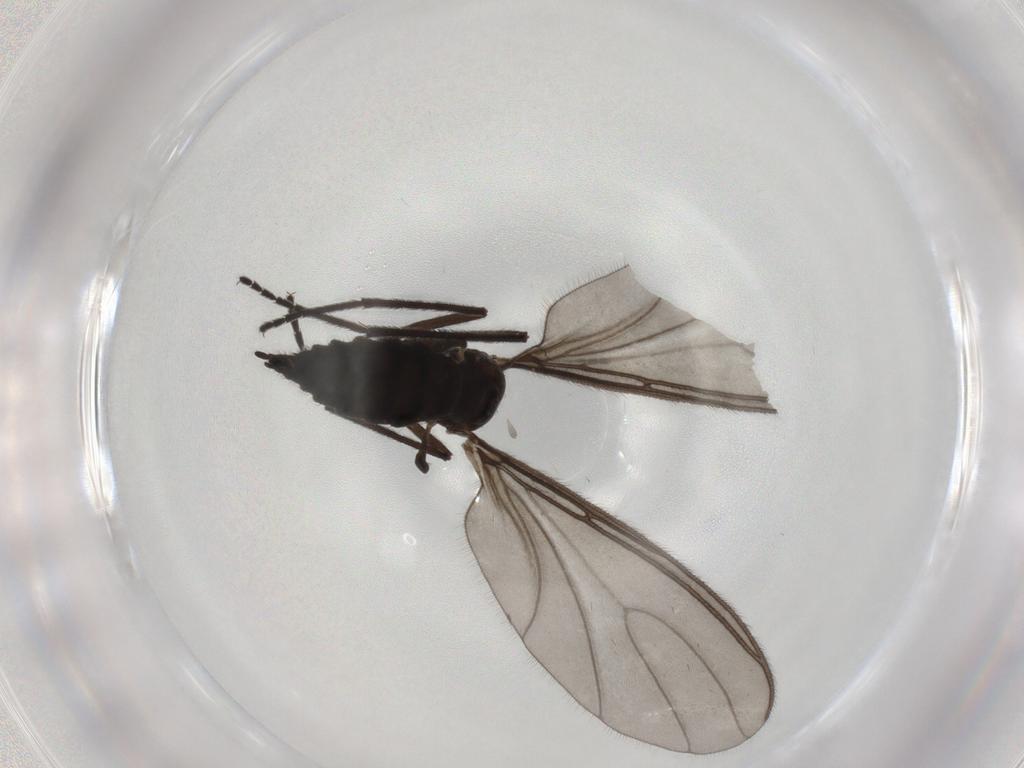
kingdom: Animalia
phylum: Arthropoda
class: Insecta
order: Diptera
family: Sciaridae
